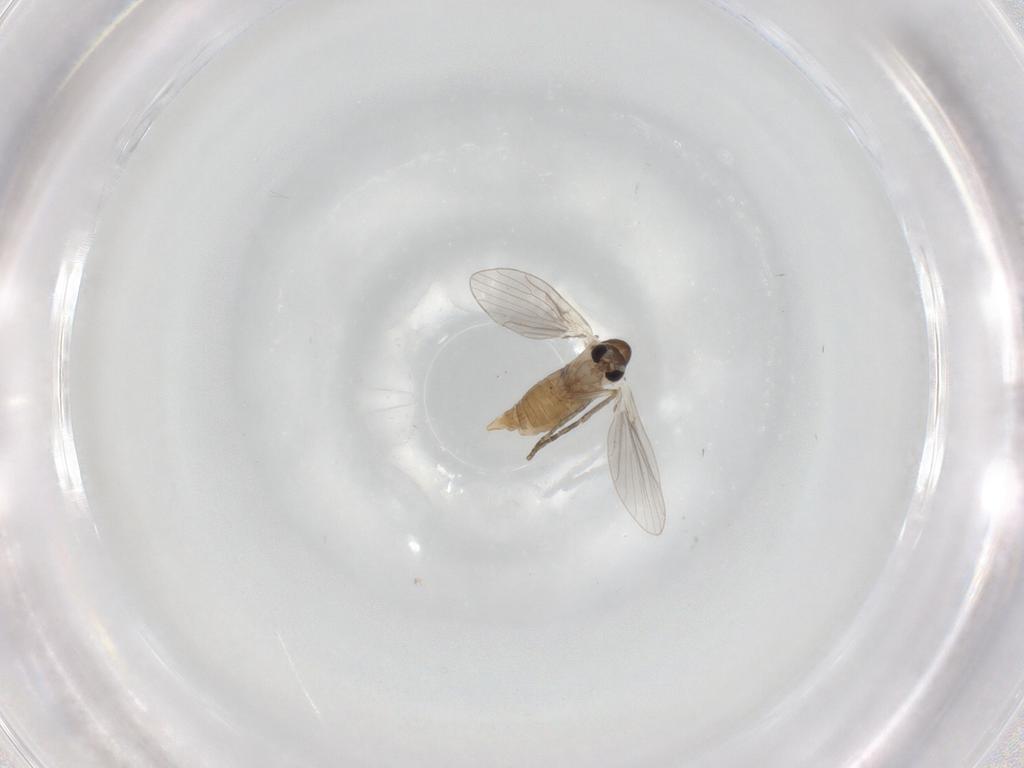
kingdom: Animalia
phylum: Arthropoda
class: Insecta
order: Diptera
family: Psychodidae
